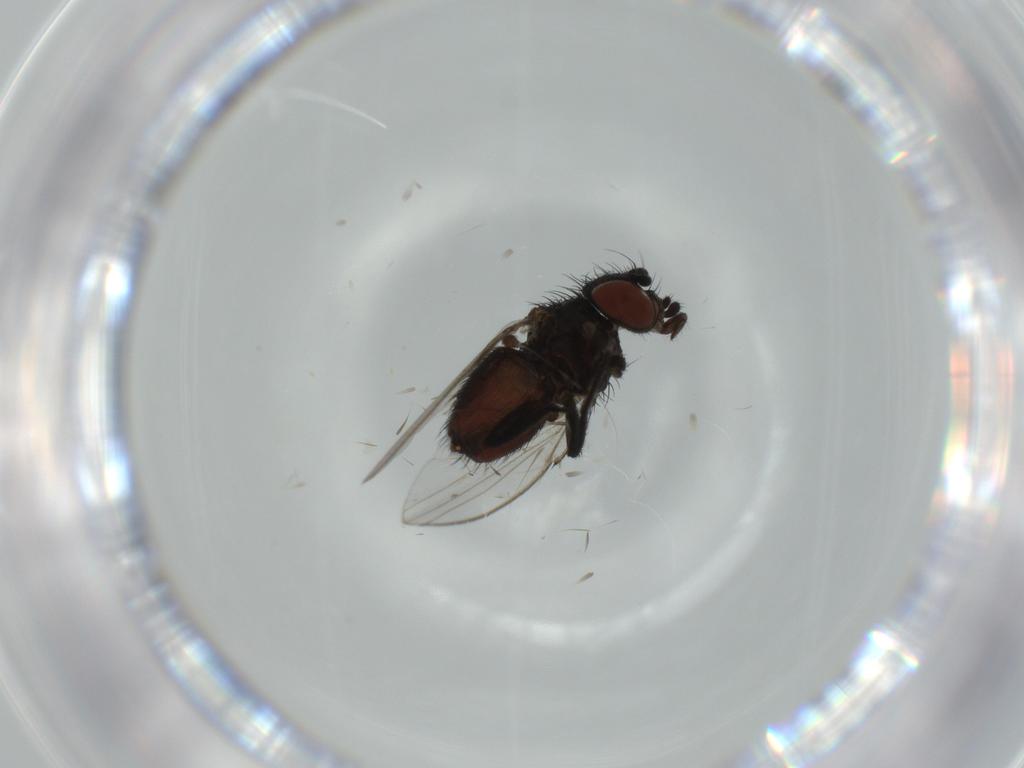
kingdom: Animalia
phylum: Arthropoda
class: Insecta
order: Diptera
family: Milichiidae
